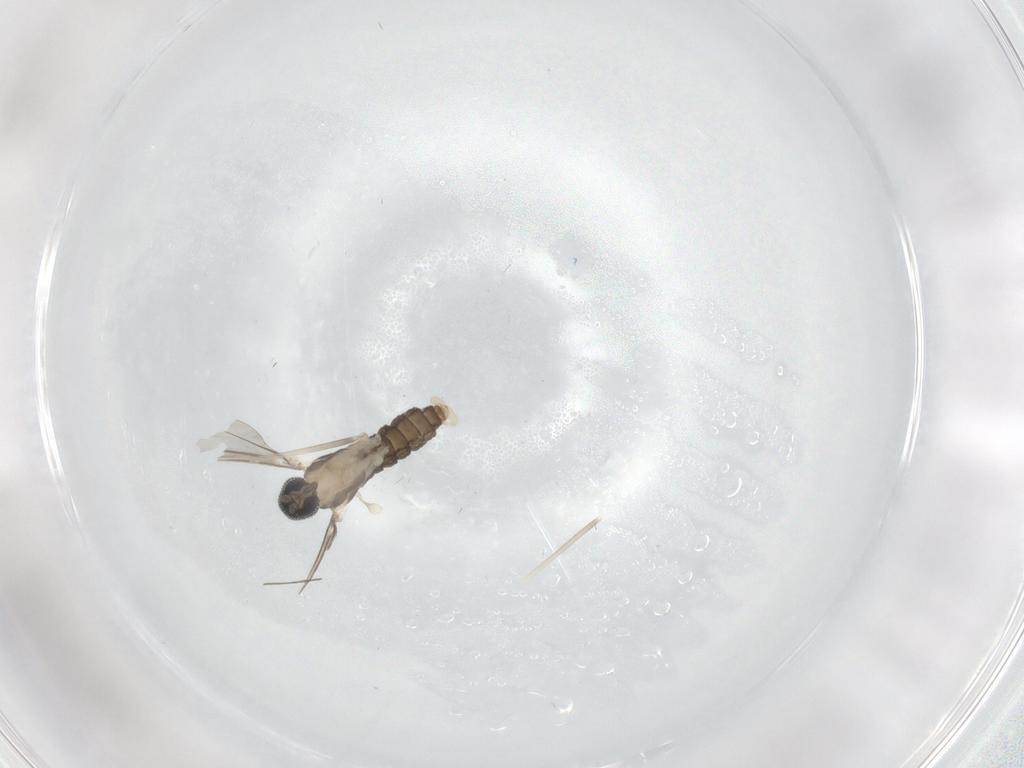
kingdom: Animalia
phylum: Arthropoda
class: Insecta
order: Diptera
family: Cecidomyiidae
